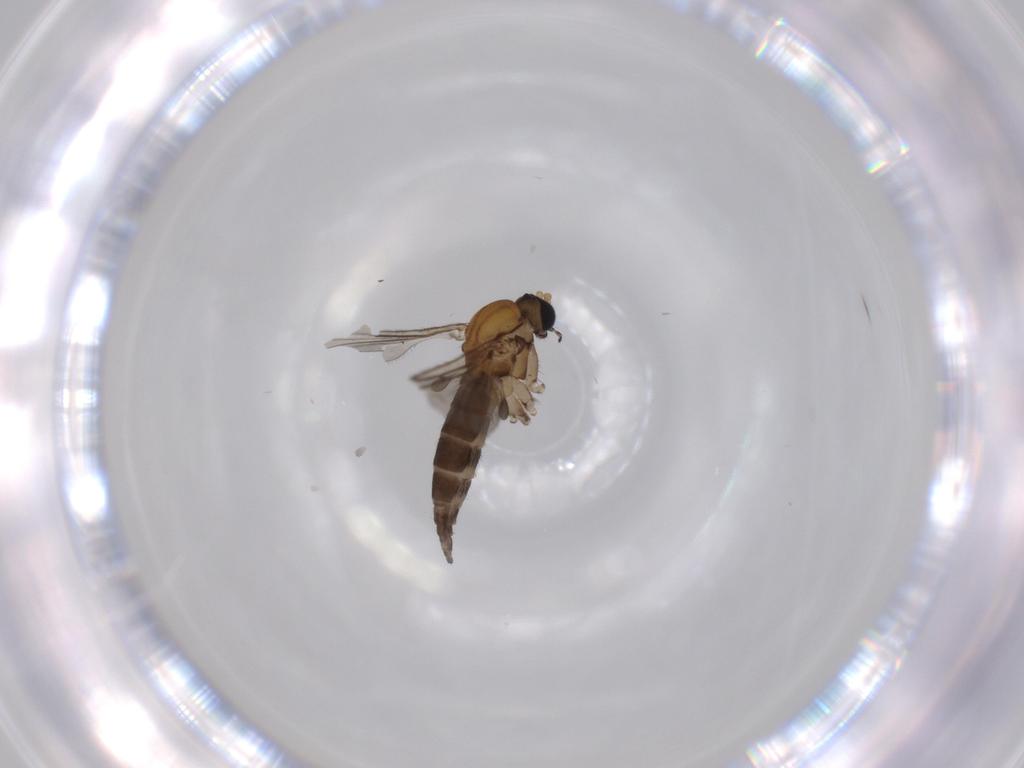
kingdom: Animalia
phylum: Arthropoda
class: Insecta
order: Diptera
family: Sciaridae
